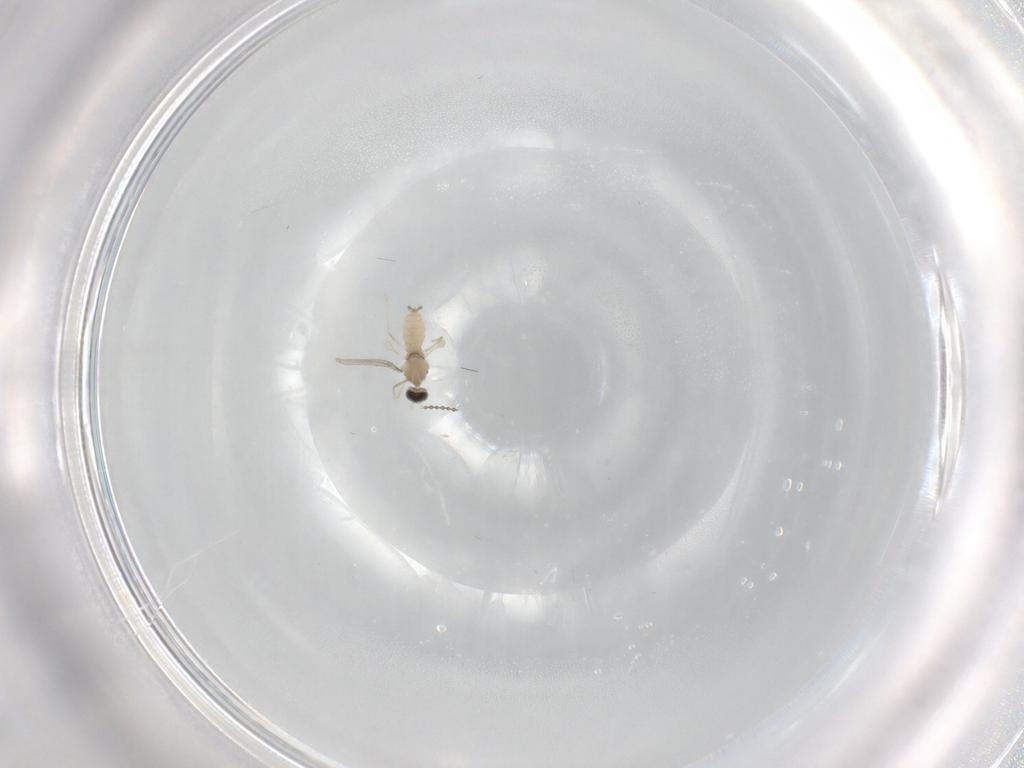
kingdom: Animalia
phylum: Arthropoda
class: Insecta
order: Diptera
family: Cecidomyiidae
